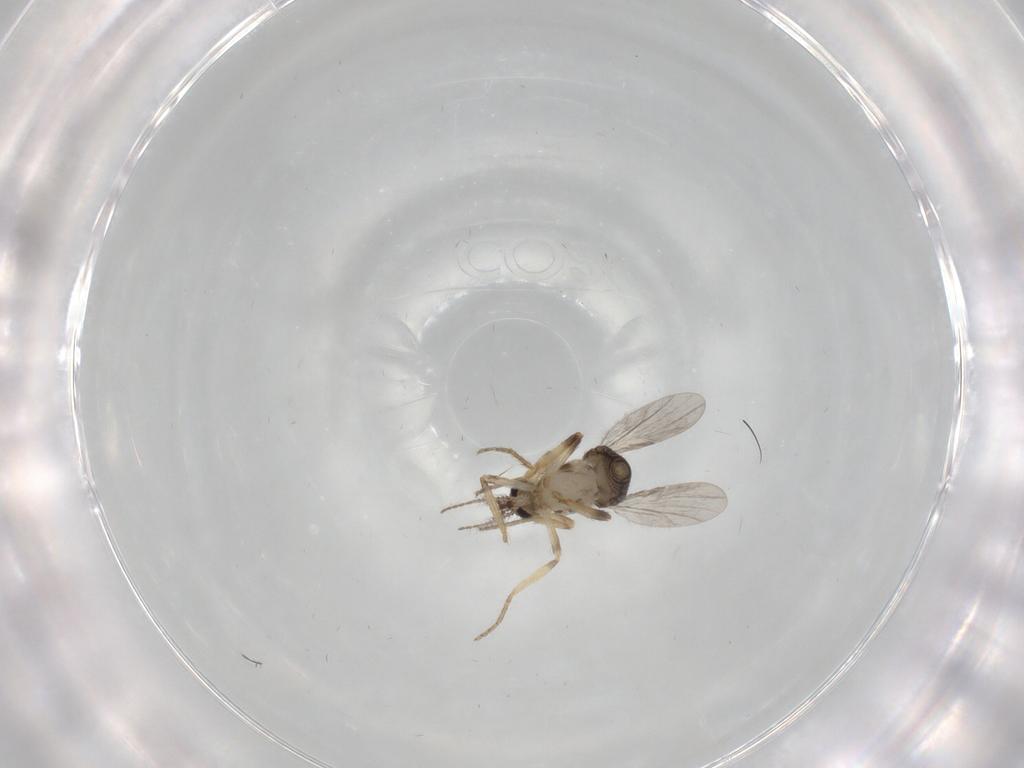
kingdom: Animalia
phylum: Arthropoda
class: Insecta
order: Diptera
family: Ceratopogonidae
